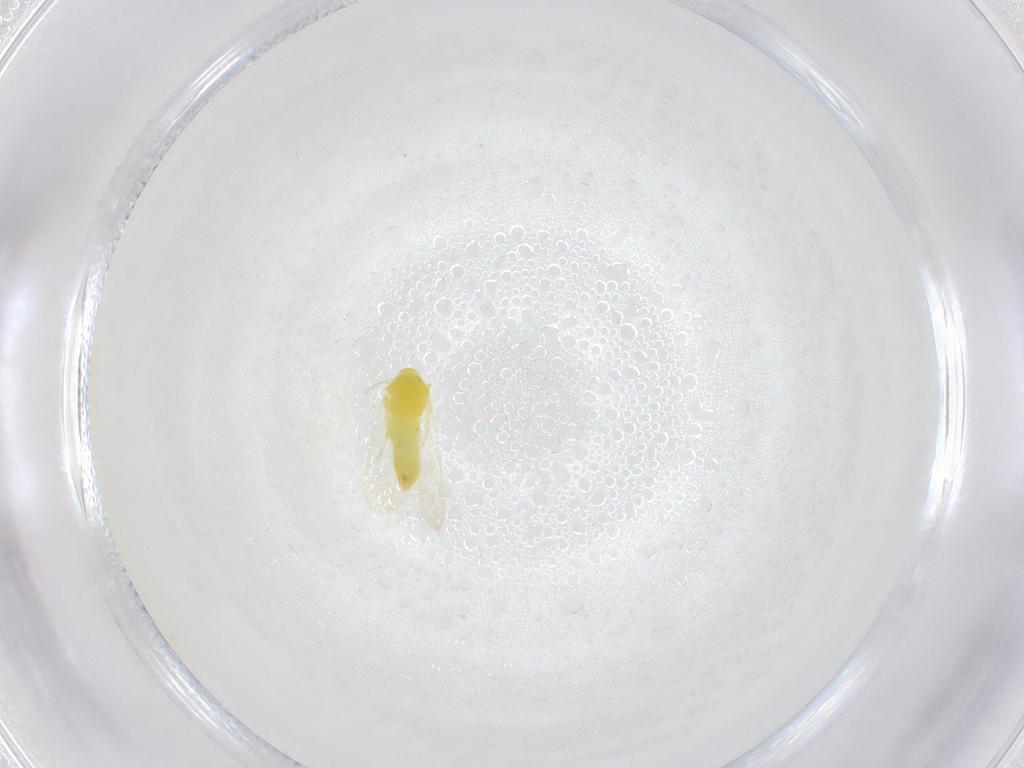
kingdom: Animalia
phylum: Arthropoda
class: Insecta
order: Hemiptera
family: Aleyrodidae
